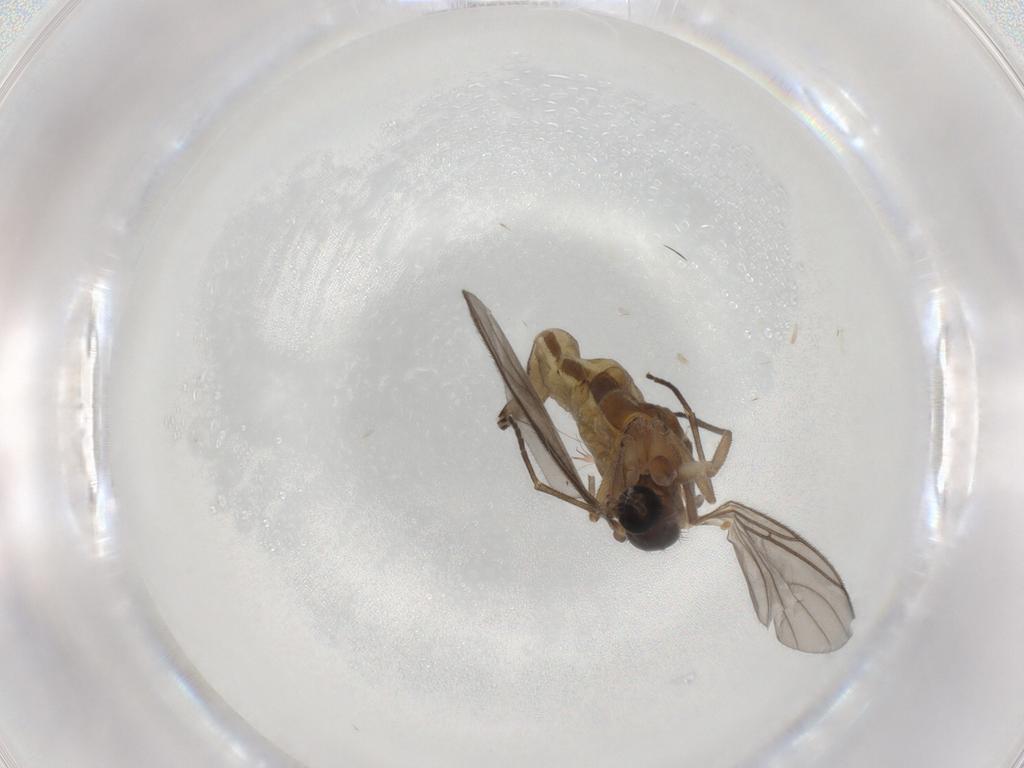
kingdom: Animalia
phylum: Arthropoda
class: Insecta
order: Diptera
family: Sciaridae
